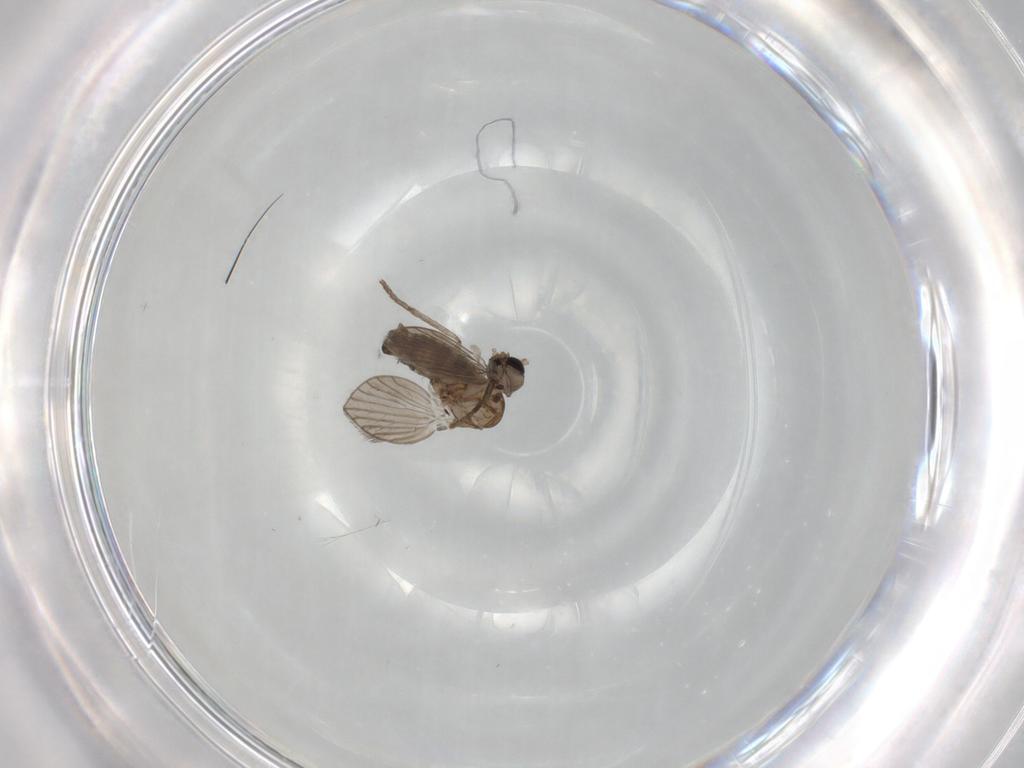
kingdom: Animalia
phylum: Arthropoda
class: Insecta
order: Diptera
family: Psychodidae
